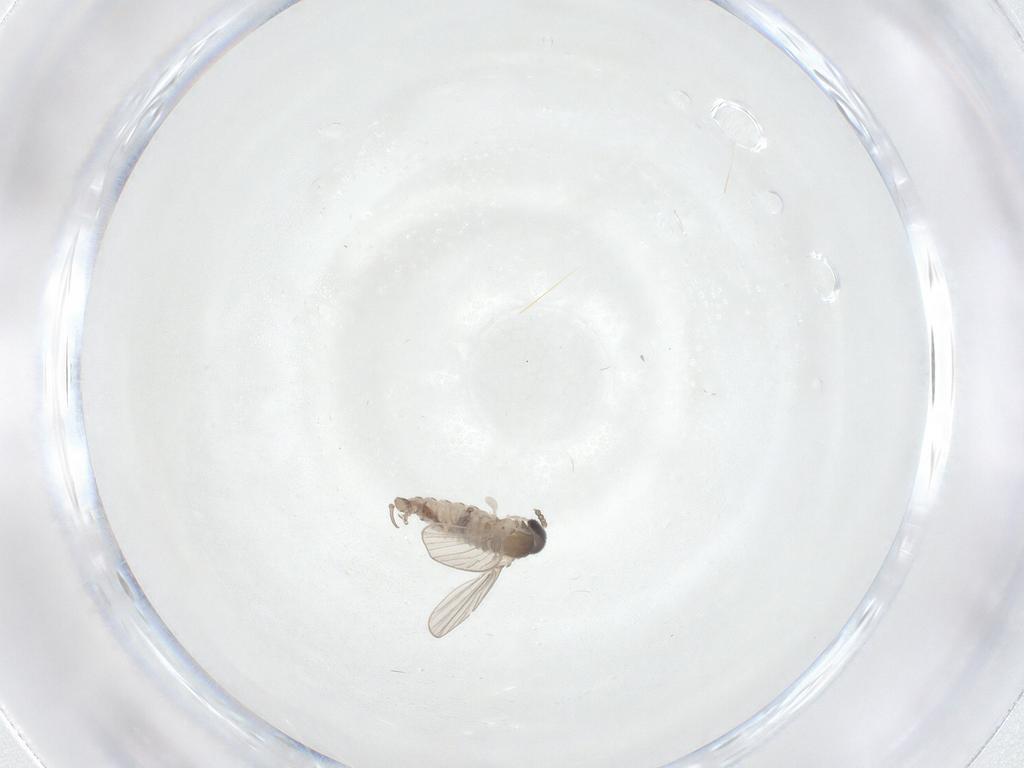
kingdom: Animalia
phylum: Arthropoda
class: Insecta
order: Diptera
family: Psychodidae
